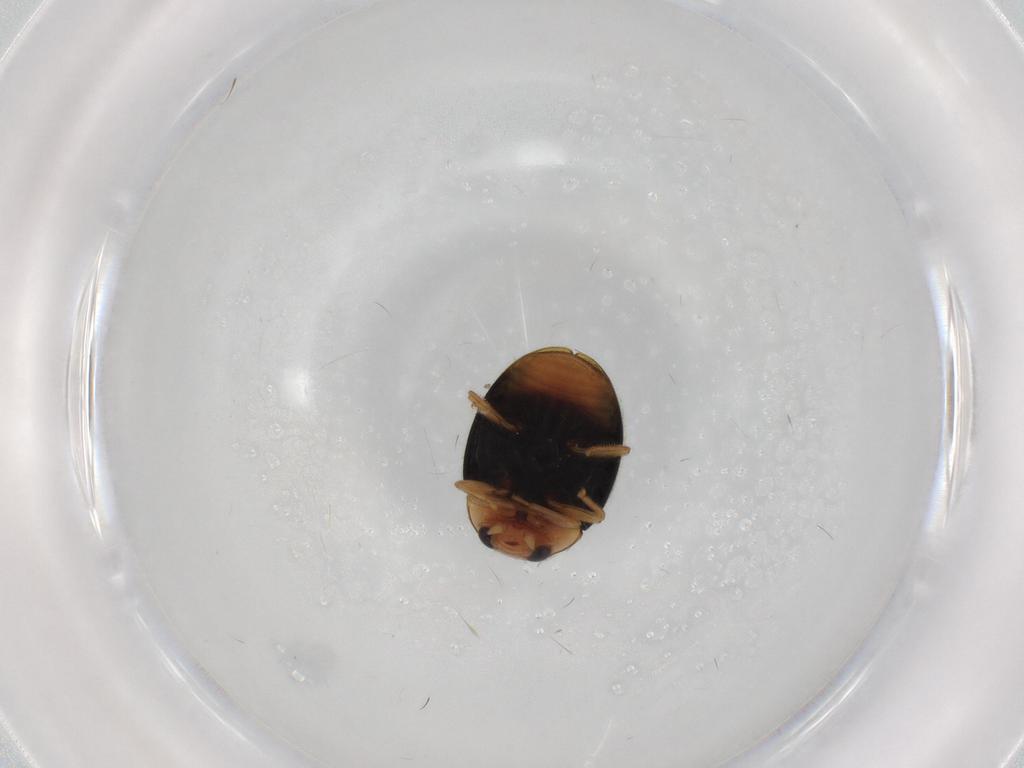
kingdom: Animalia
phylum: Arthropoda
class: Insecta
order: Coleoptera
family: Coccinellidae
